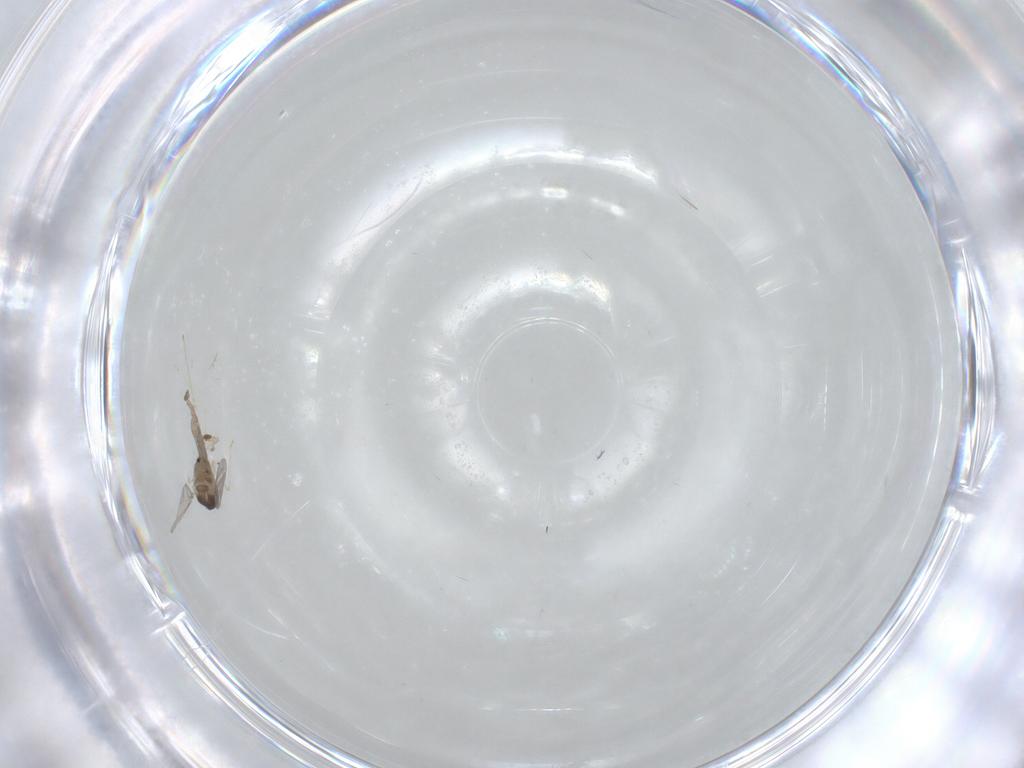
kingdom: Animalia
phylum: Arthropoda
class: Insecta
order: Diptera
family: Cecidomyiidae
